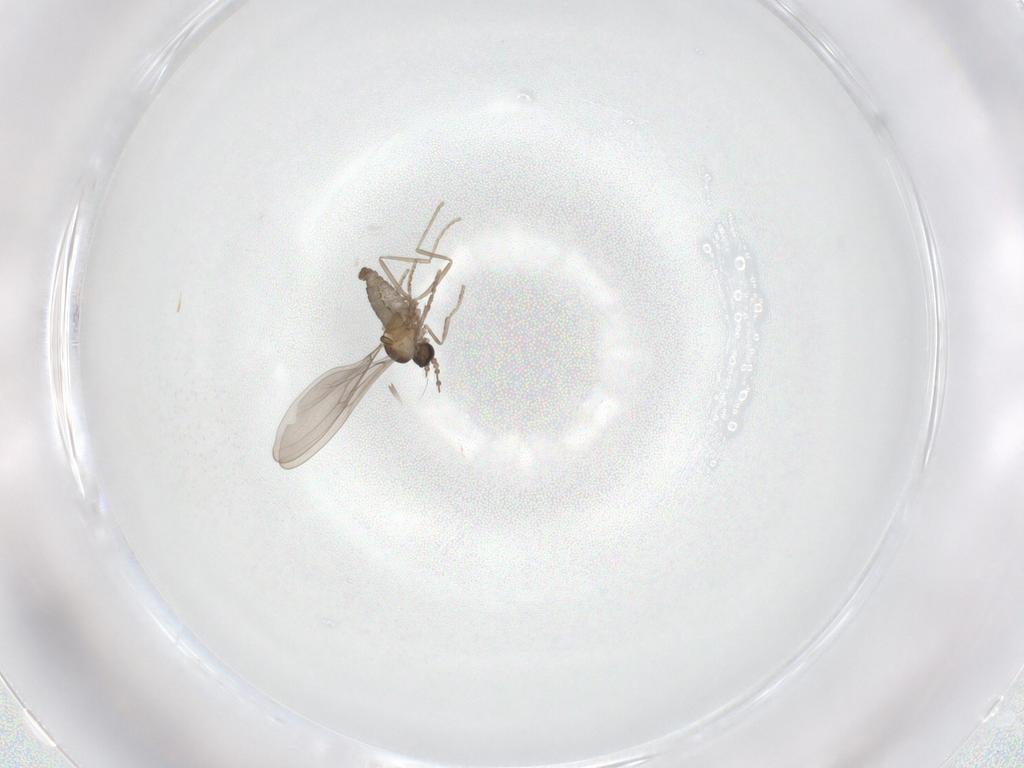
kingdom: Animalia
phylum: Arthropoda
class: Insecta
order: Diptera
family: Cecidomyiidae
